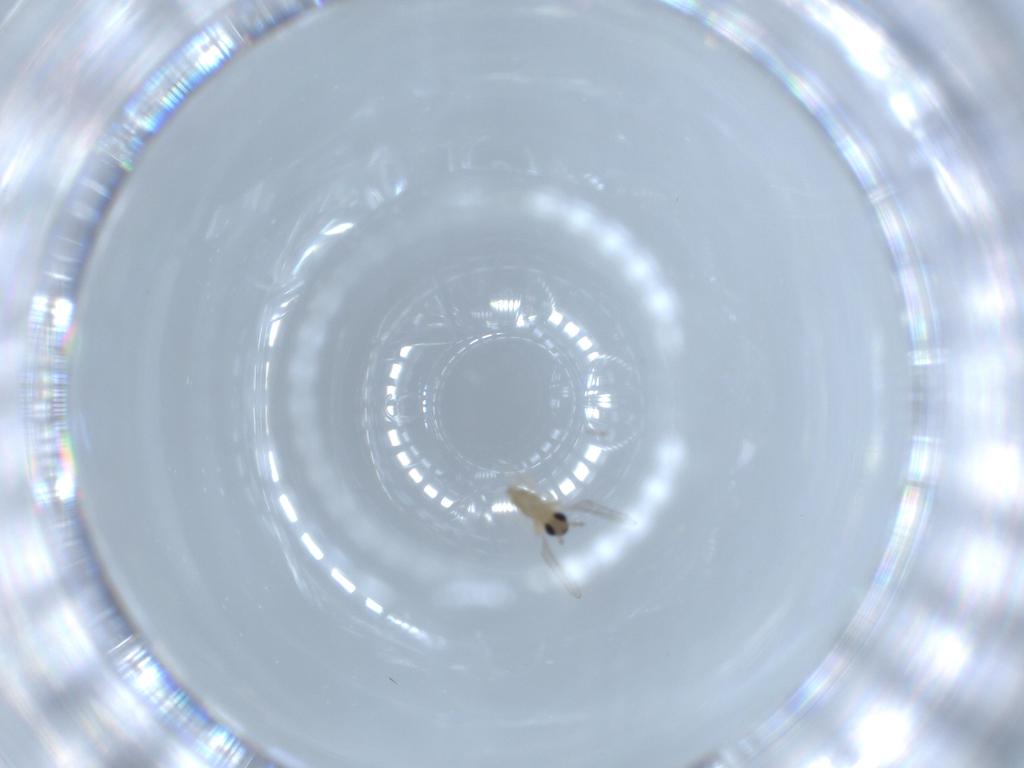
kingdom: Animalia
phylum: Arthropoda
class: Insecta
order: Diptera
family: Cecidomyiidae
